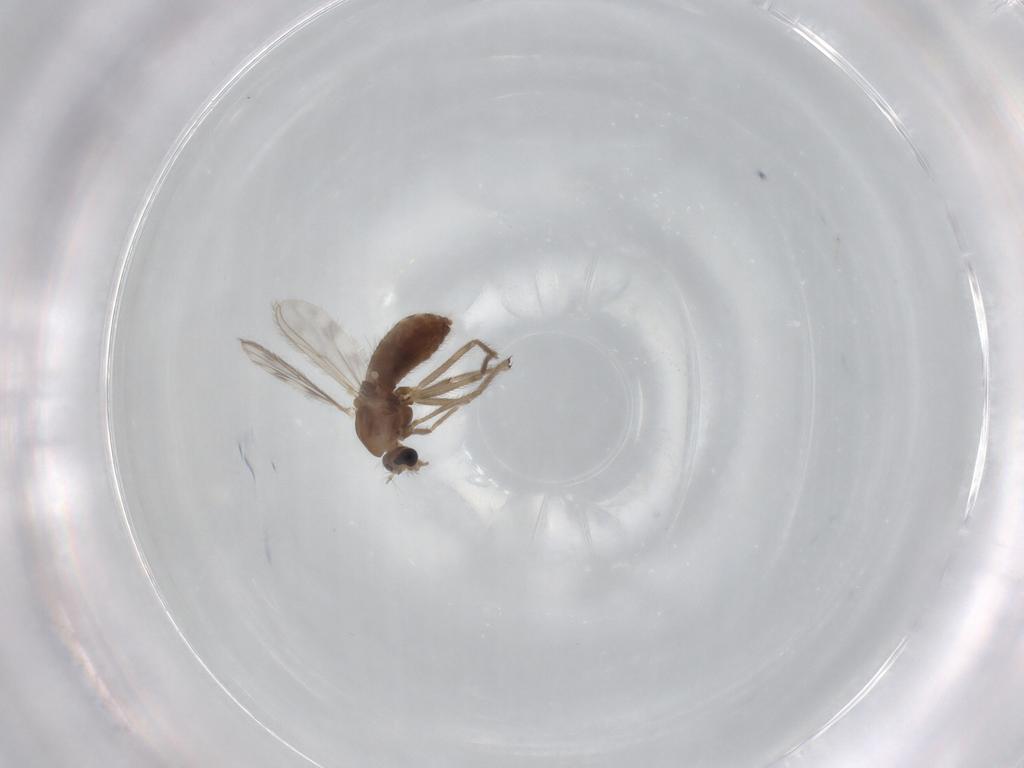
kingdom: Animalia
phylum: Arthropoda
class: Insecta
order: Diptera
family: Chironomidae
